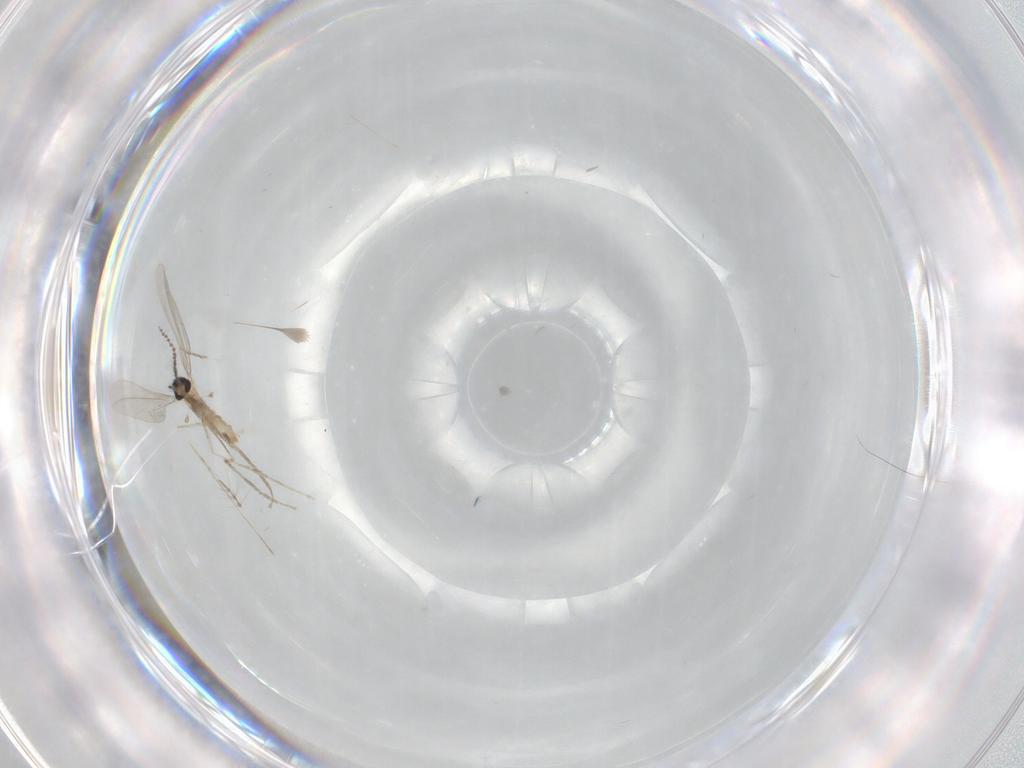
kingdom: Animalia
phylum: Arthropoda
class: Insecta
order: Diptera
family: Cecidomyiidae
